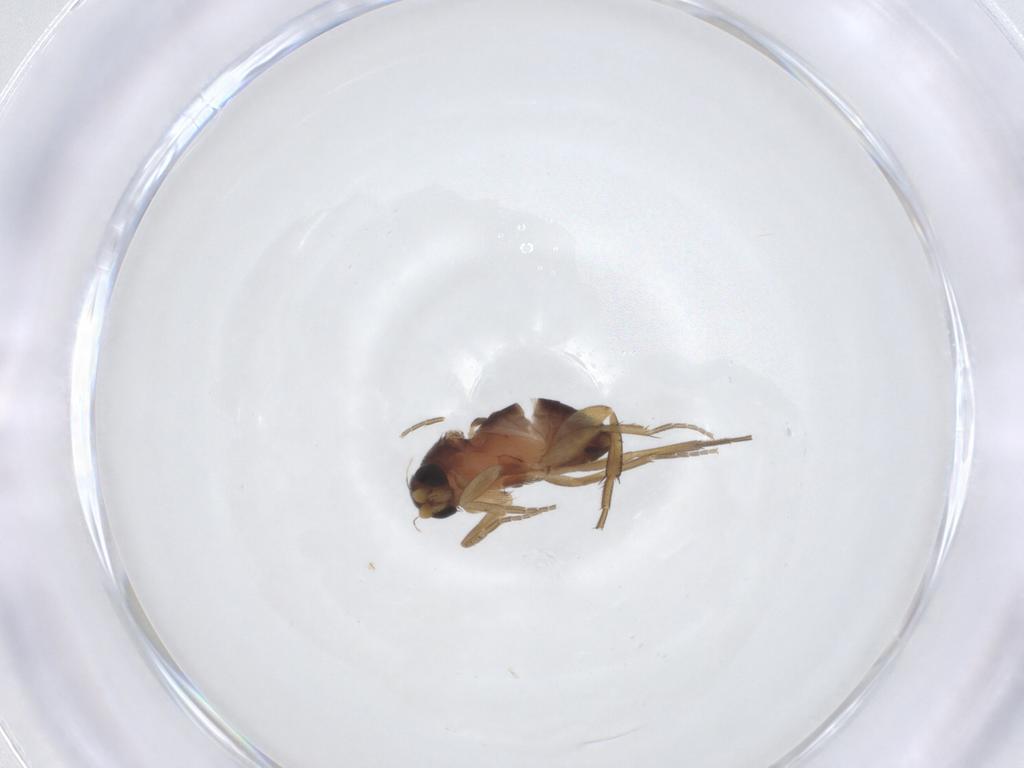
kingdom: Animalia
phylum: Arthropoda
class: Insecta
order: Diptera
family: Phoridae
